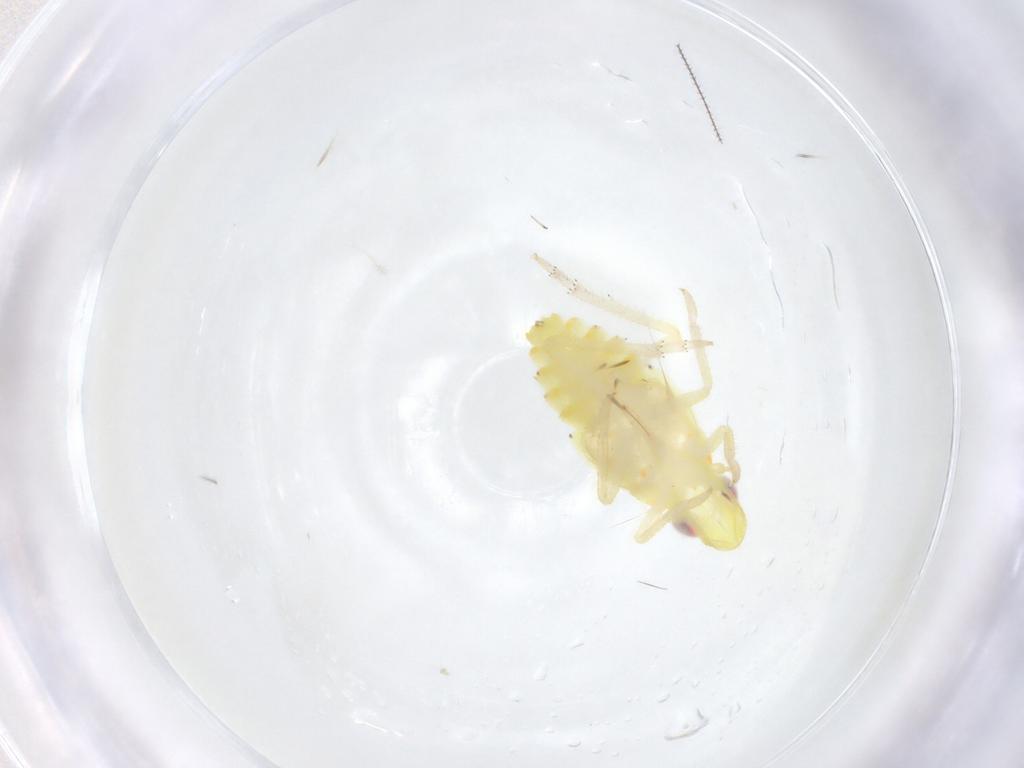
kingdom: Animalia
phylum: Arthropoda
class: Insecta
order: Hemiptera
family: Tropiduchidae
